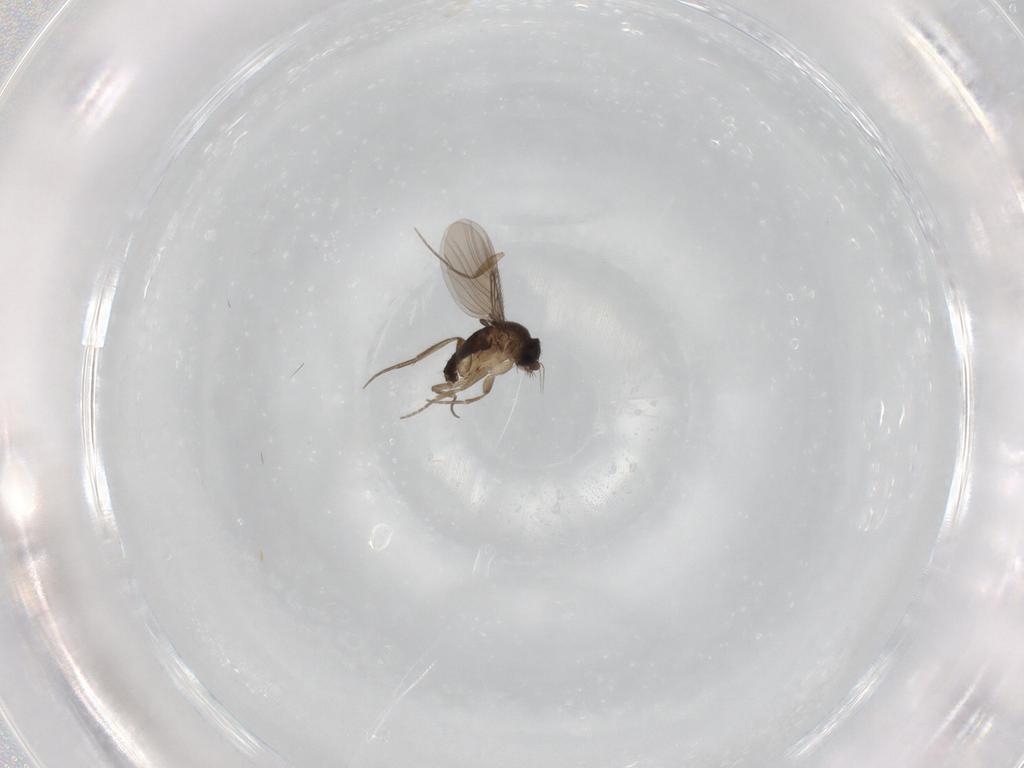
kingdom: Animalia
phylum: Arthropoda
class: Insecta
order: Diptera
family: Phoridae
